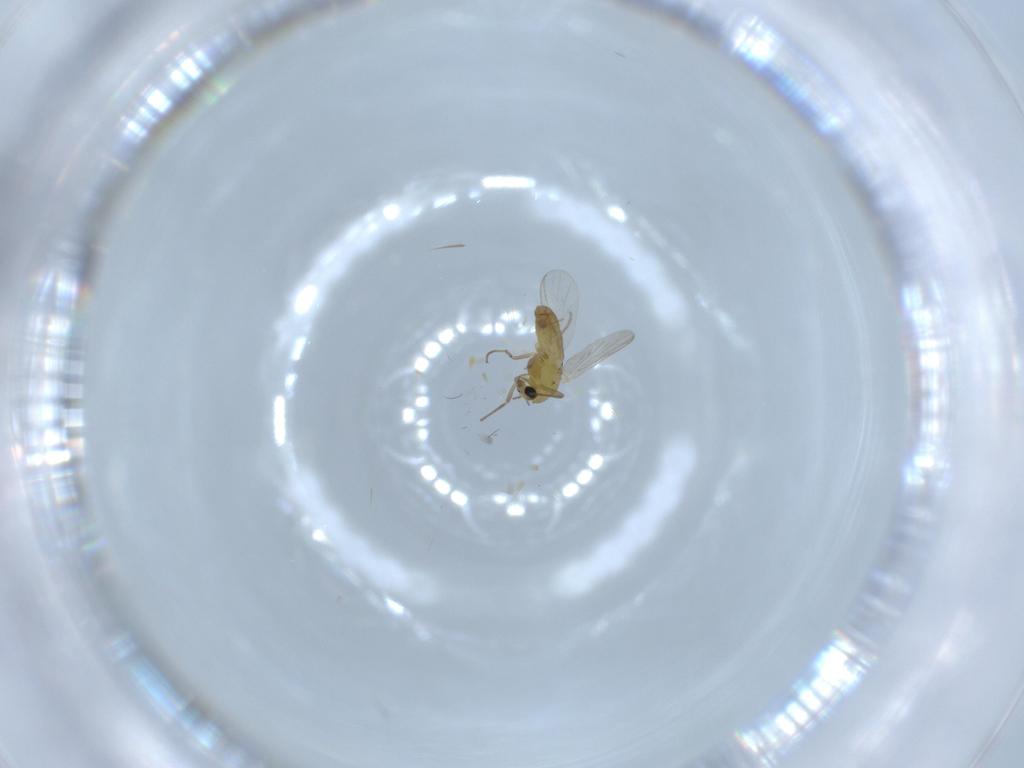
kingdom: Animalia
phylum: Arthropoda
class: Insecta
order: Diptera
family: Chironomidae
